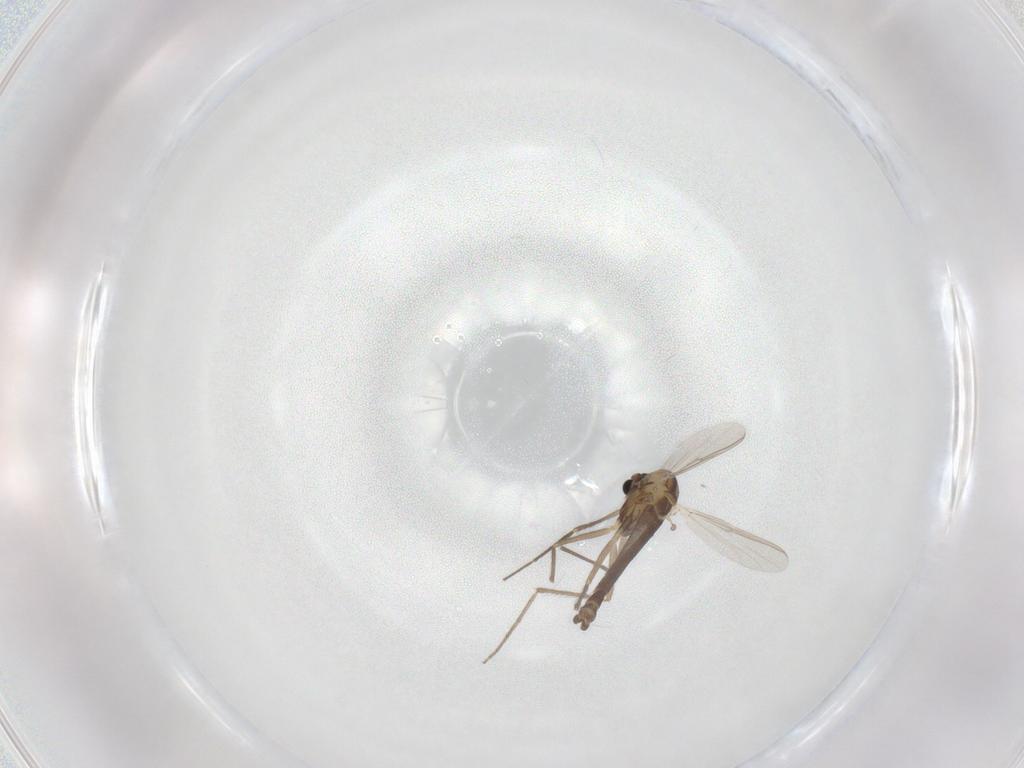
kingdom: Animalia
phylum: Arthropoda
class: Insecta
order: Diptera
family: Chironomidae
